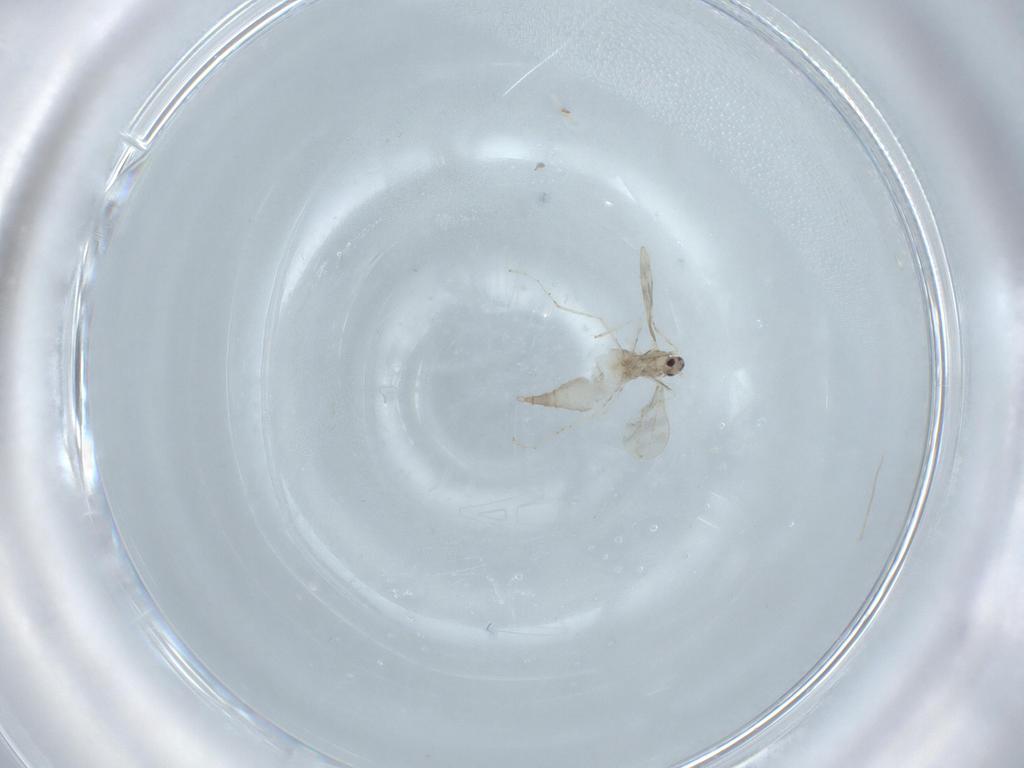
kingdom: Animalia
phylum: Arthropoda
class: Insecta
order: Diptera
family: Cecidomyiidae
